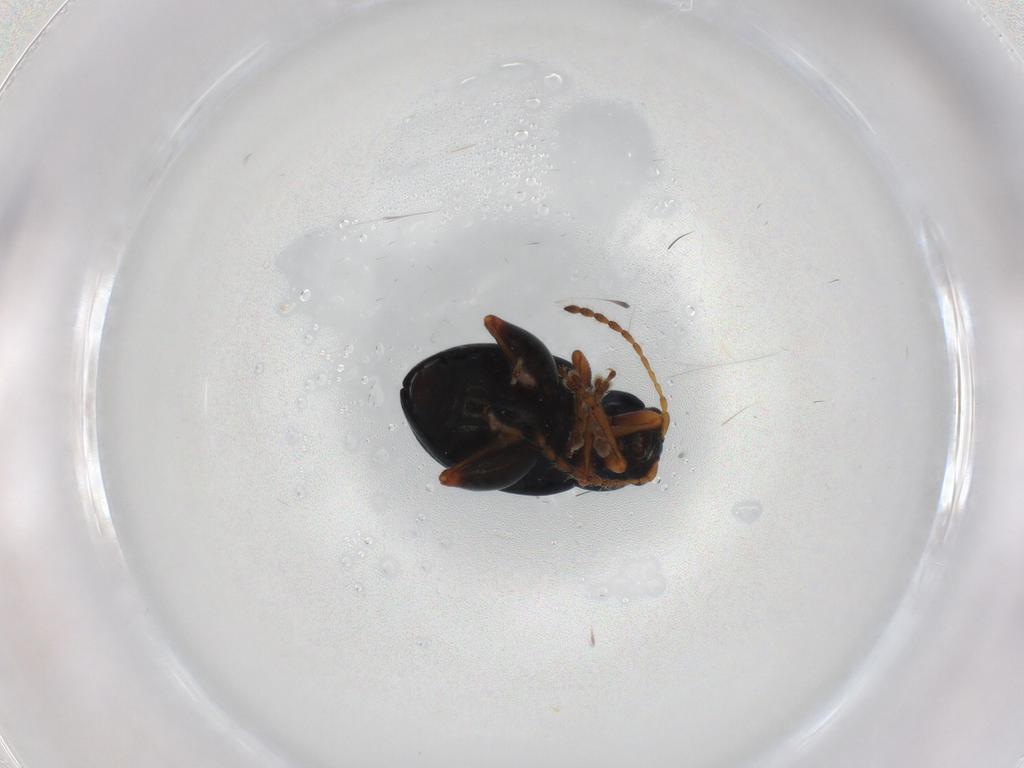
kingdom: Animalia
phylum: Arthropoda
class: Insecta
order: Coleoptera
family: Chrysomelidae
